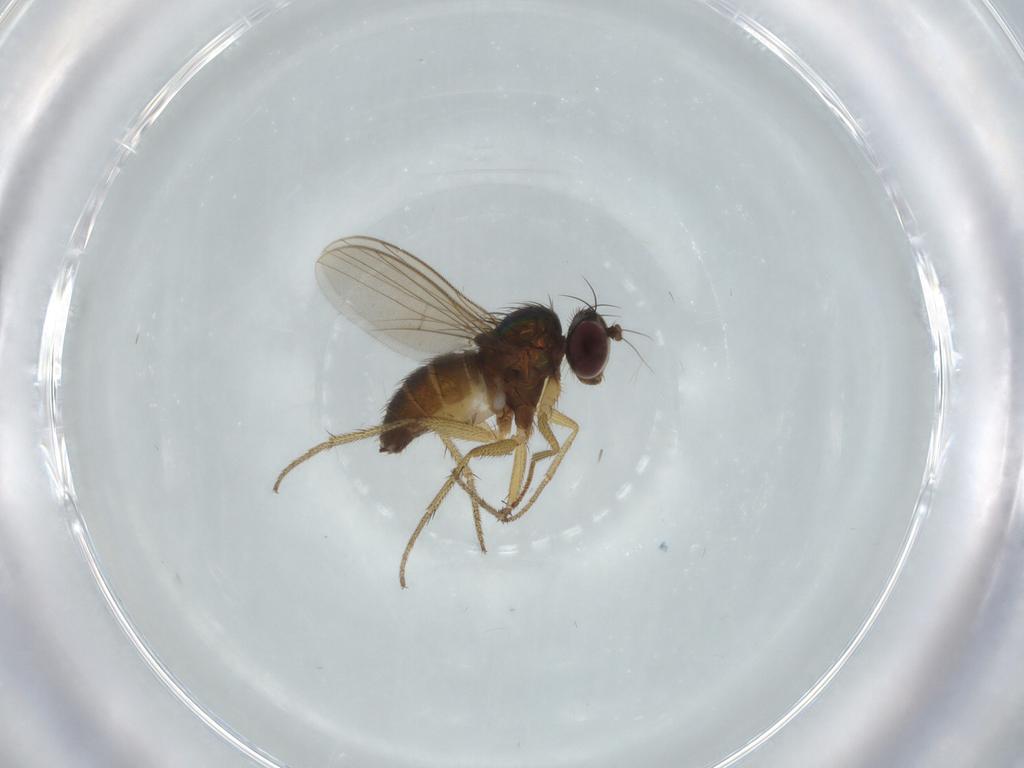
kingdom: Animalia
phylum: Arthropoda
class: Insecta
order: Diptera
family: Dolichopodidae
